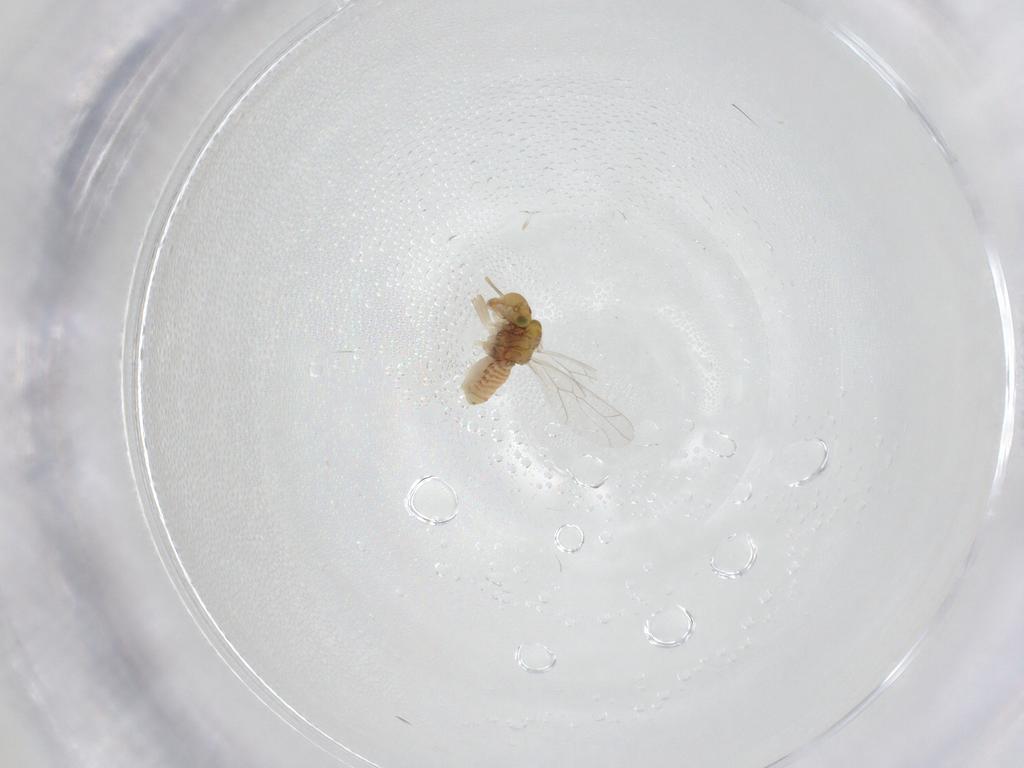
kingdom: Animalia
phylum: Arthropoda
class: Insecta
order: Psocodea
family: Lachesillidae
